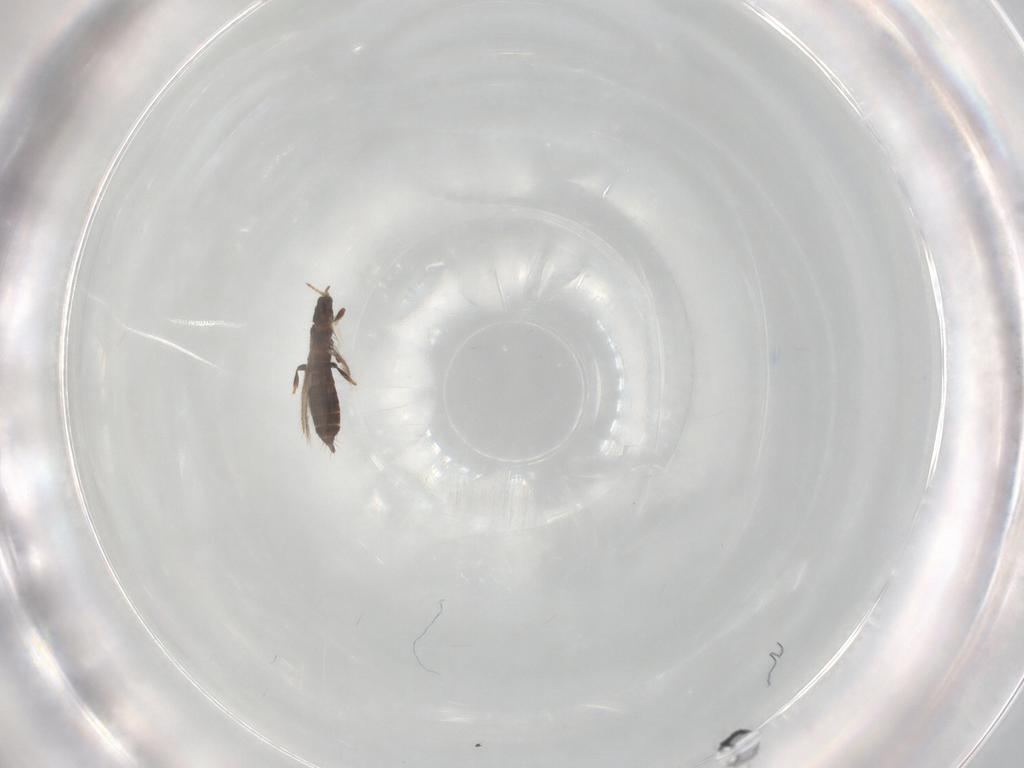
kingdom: Animalia
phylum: Arthropoda
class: Insecta
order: Thysanoptera
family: Thripidae
